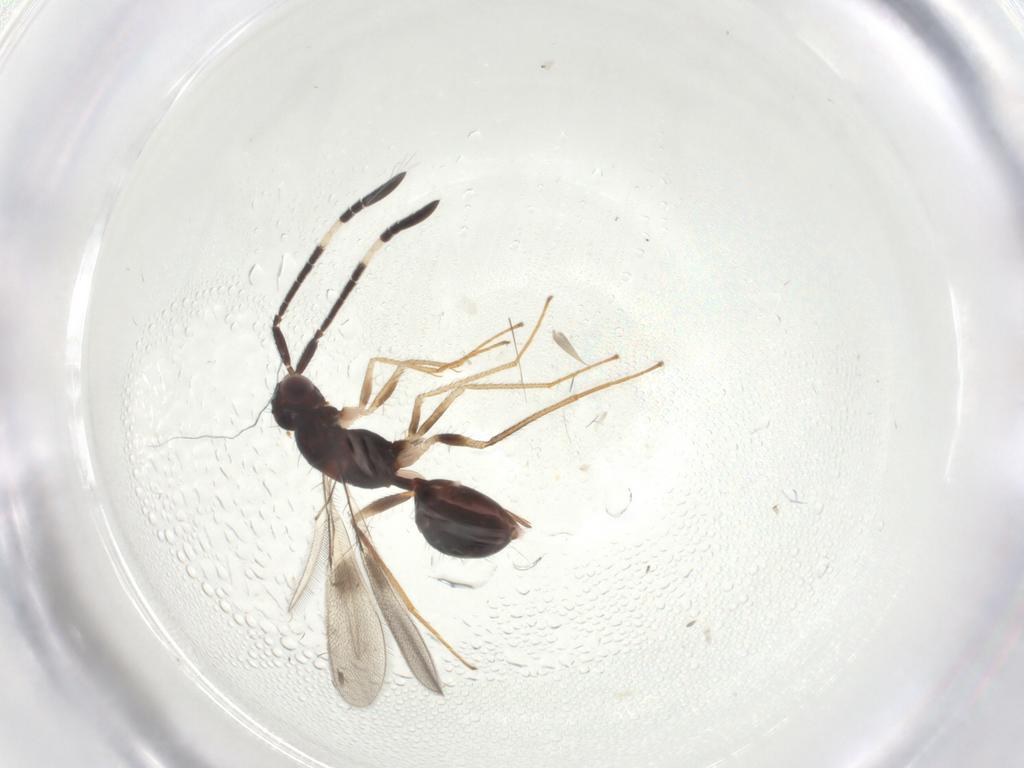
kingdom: Animalia
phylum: Arthropoda
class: Insecta
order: Hymenoptera
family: Mymaridae
